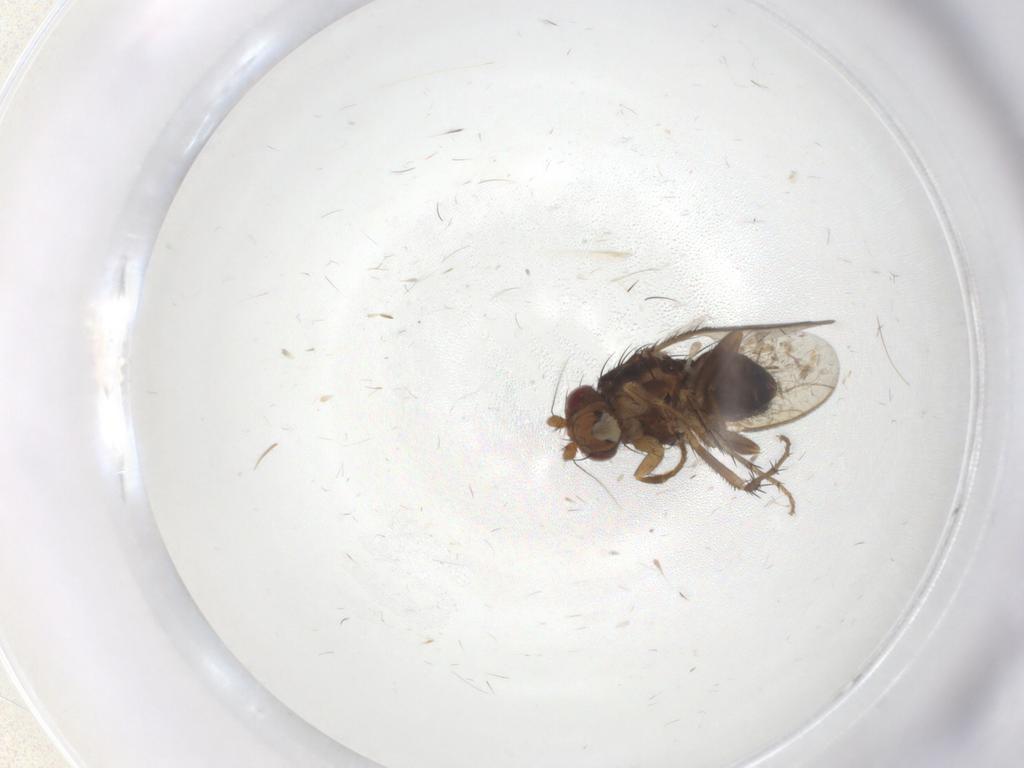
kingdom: Animalia
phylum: Arthropoda
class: Insecta
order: Diptera
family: Sphaeroceridae
